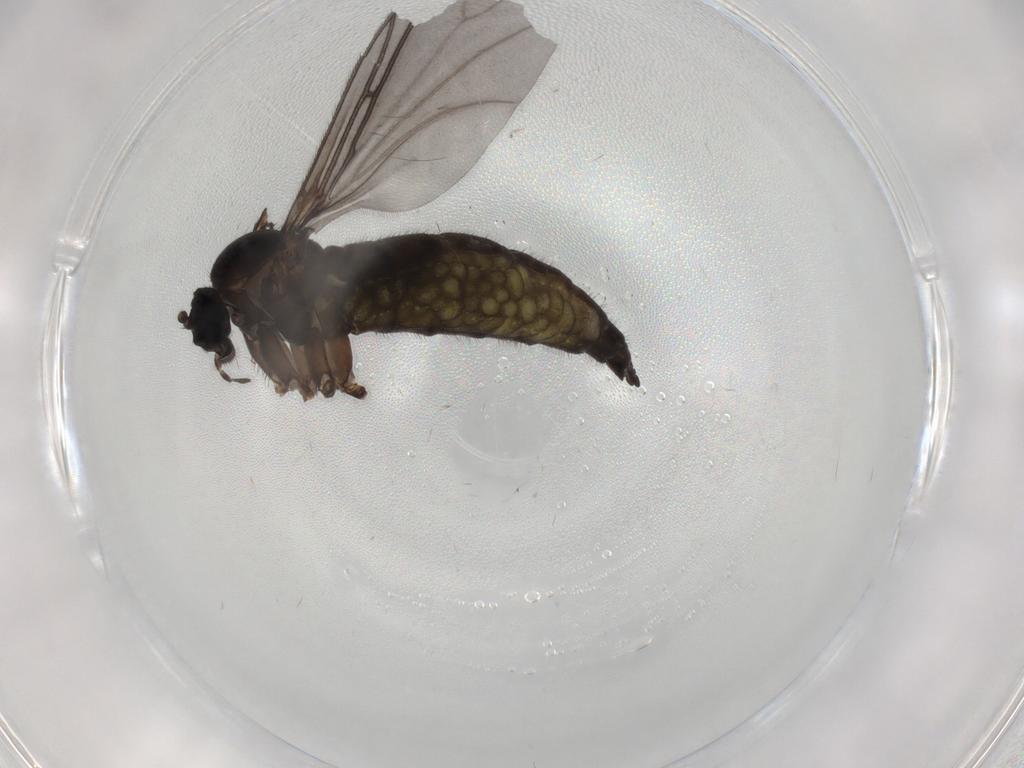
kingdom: Animalia
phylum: Arthropoda
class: Insecta
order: Diptera
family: Sciaridae
